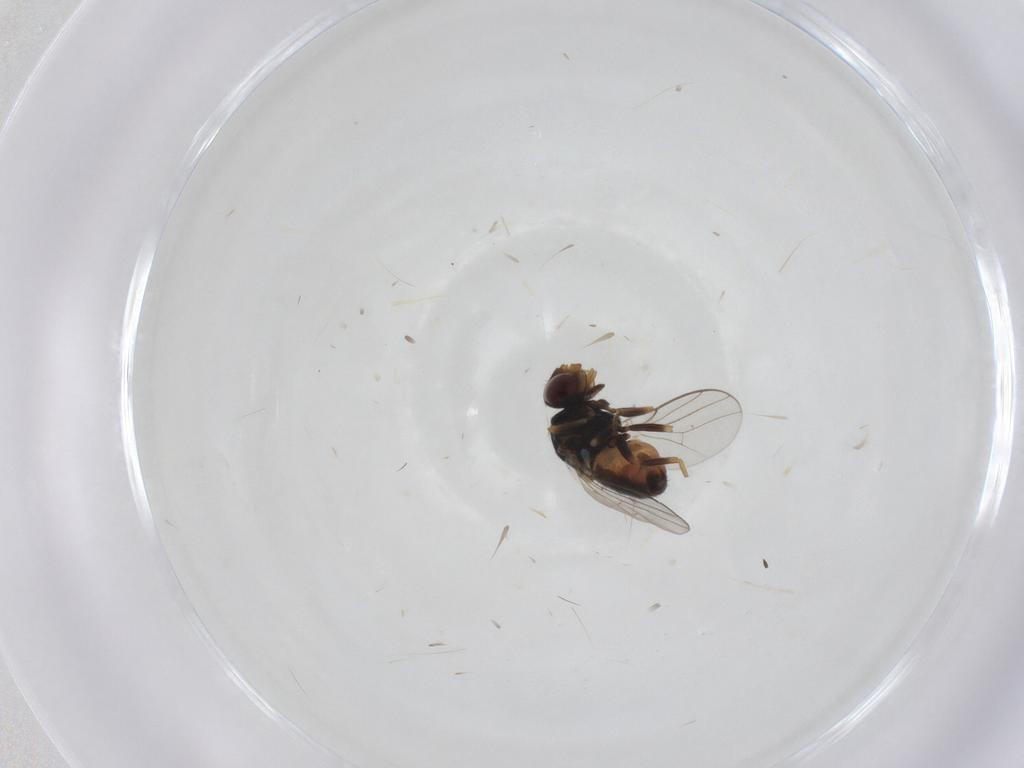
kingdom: Animalia
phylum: Arthropoda
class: Insecta
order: Diptera
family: Chloropidae
